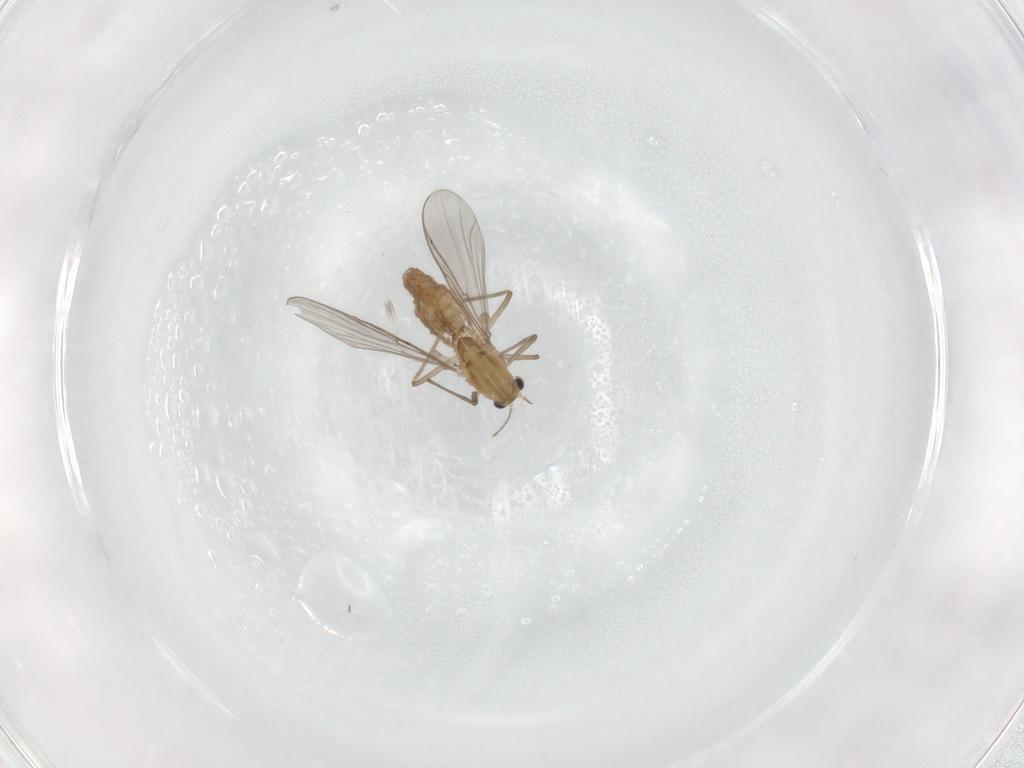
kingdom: Animalia
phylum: Arthropoda
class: Insecta
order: Diptera
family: Chironomidae
